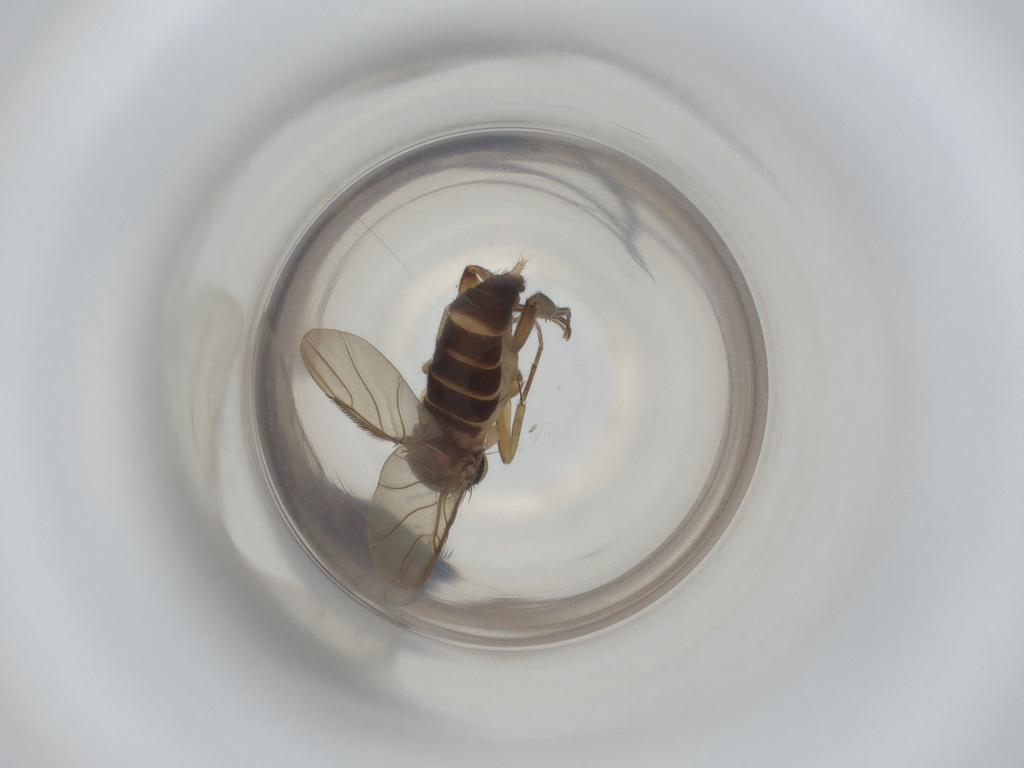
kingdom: Animalia
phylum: Arthropoda
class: Insecta
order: Diptera
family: Phoridae
